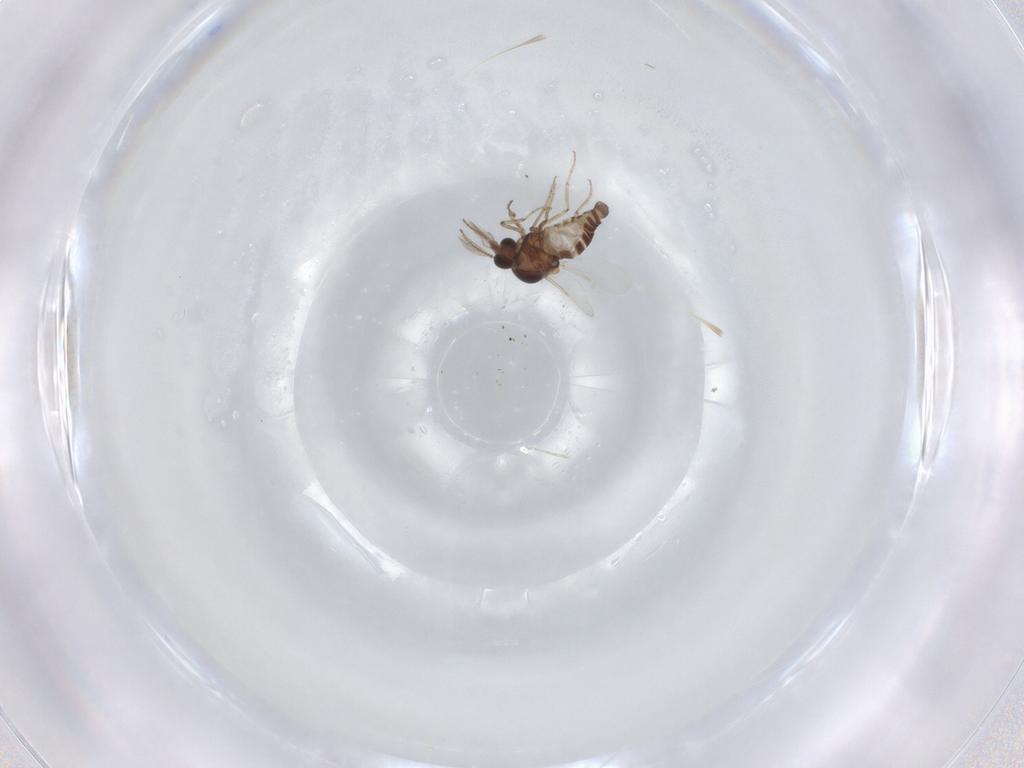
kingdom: Animalia
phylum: Arthropoda
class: Insecta
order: Diptera
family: Ceratopogonidae
